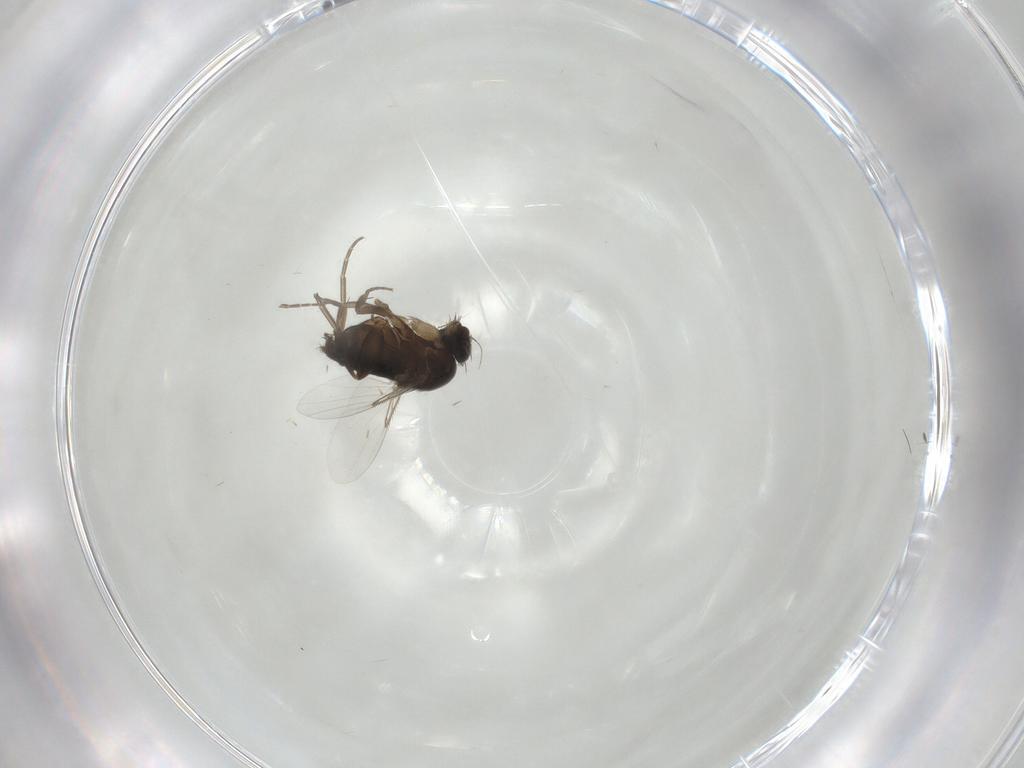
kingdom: Animalia
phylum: Arthropoda
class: Insecta
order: Diptera
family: Phoridae
